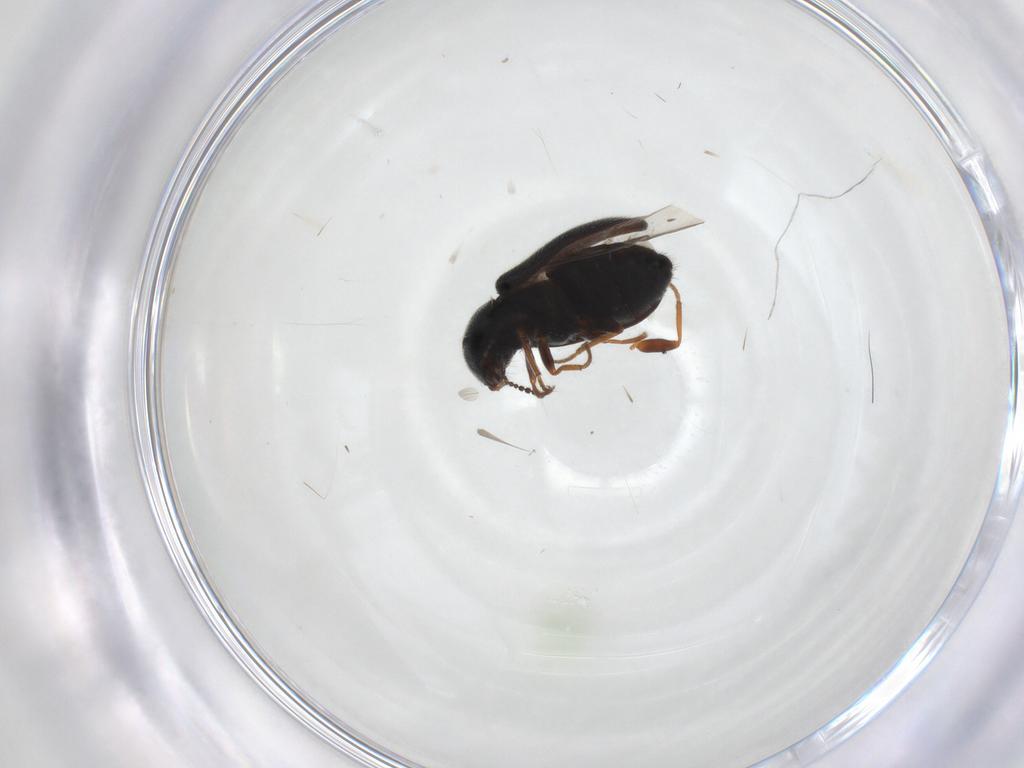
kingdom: Animalia
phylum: Arthropoda
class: Insecta
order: Coleoptera
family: Melyridae
